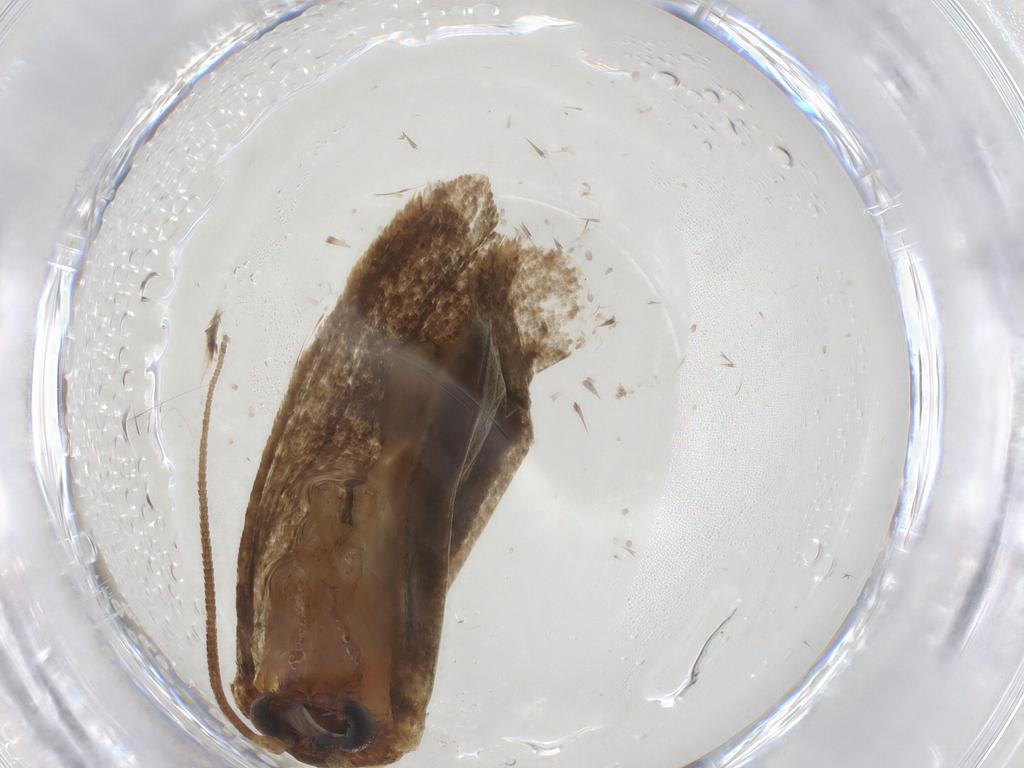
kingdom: Animalia
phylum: Arthropoda
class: Insecta
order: Lepidoptera
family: Tineidae
